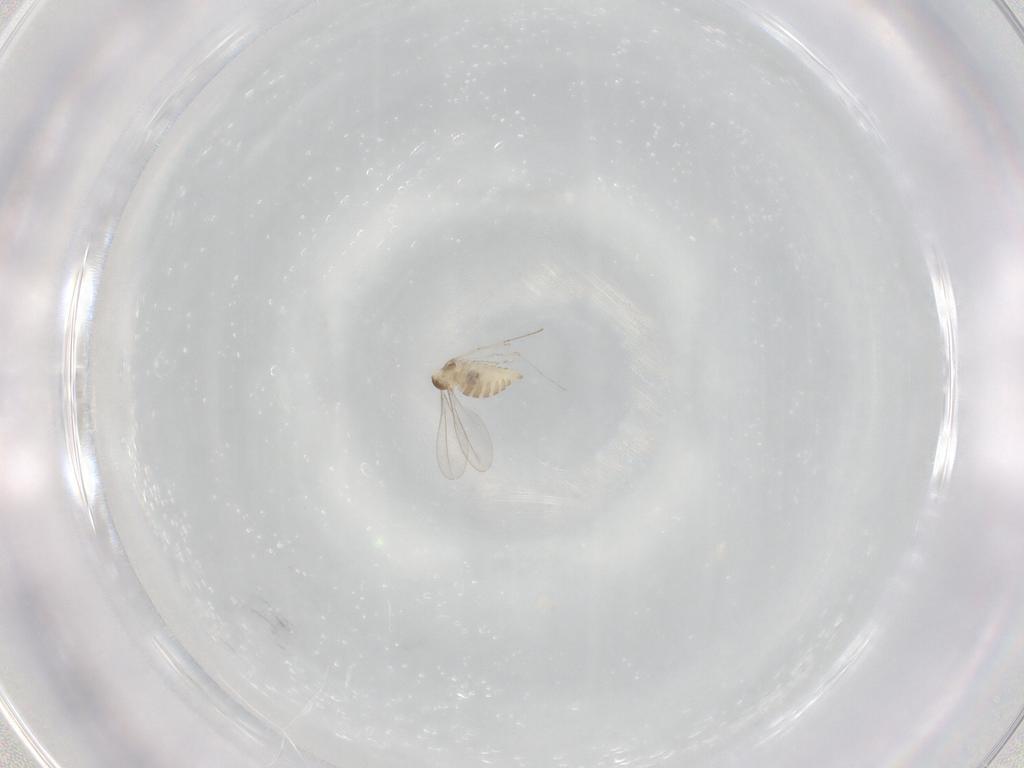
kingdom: Animalia
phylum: Arthropoda
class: Insecta
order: Diptera
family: Cecidomyiidae
